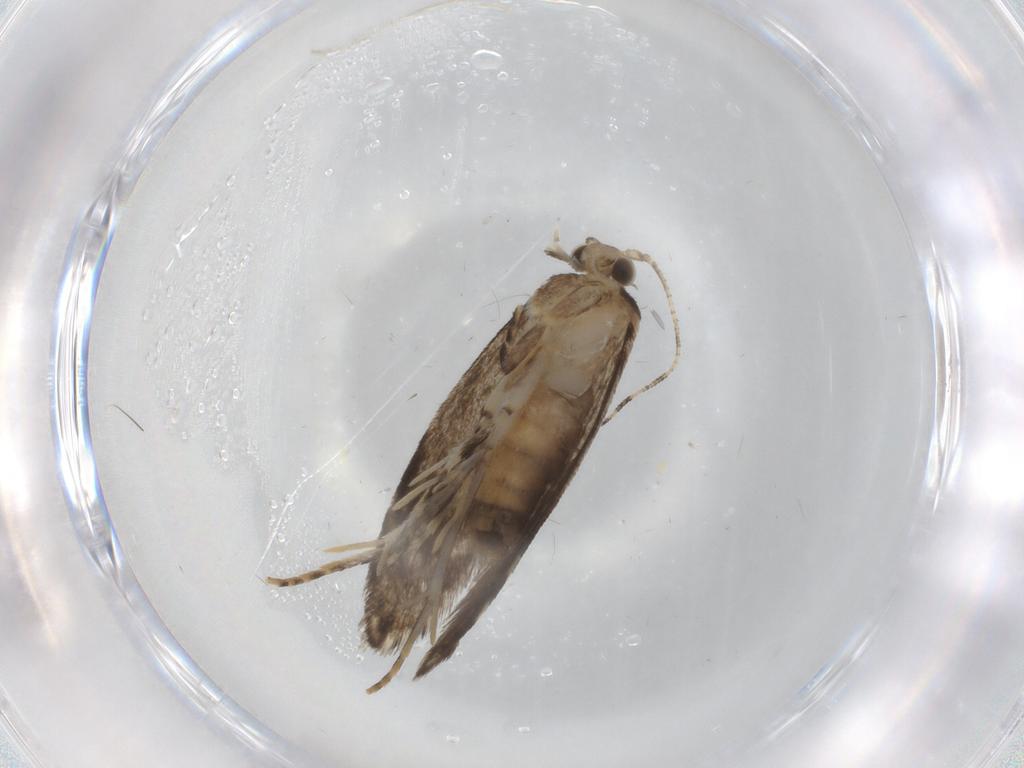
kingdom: Animalia
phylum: Arthropoda
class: Insecta
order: Lepidoptera
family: Tineidae
